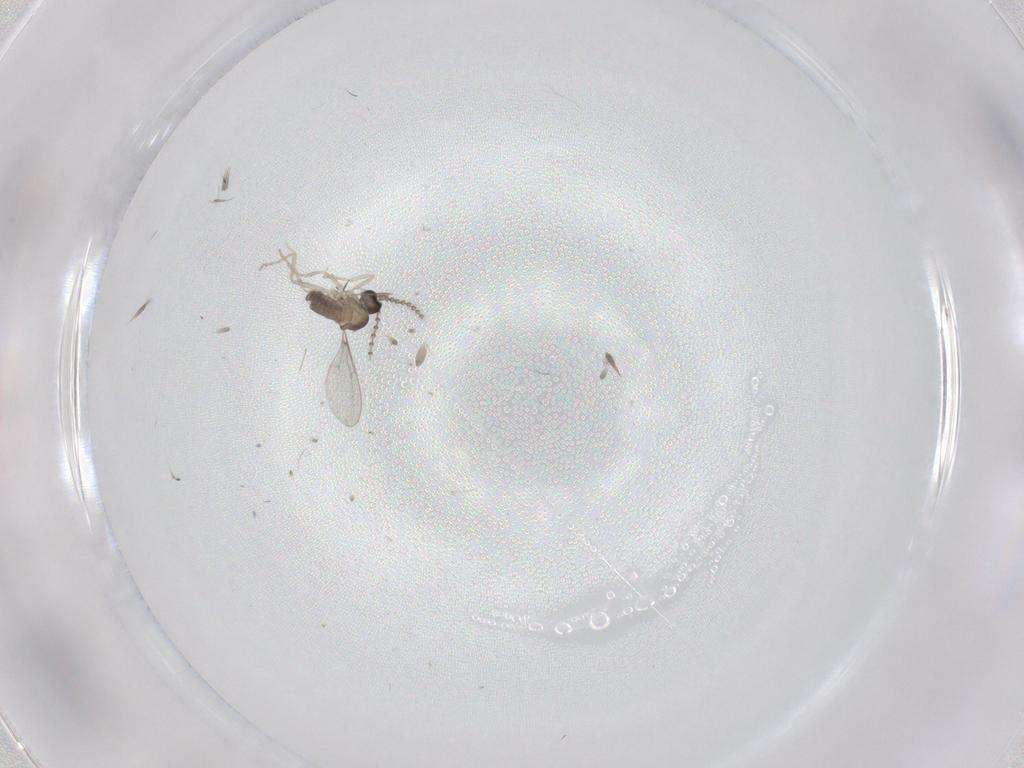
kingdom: Animalia
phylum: Arthropoda
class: Insecta
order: Diptera
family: Cecidomyiidae
